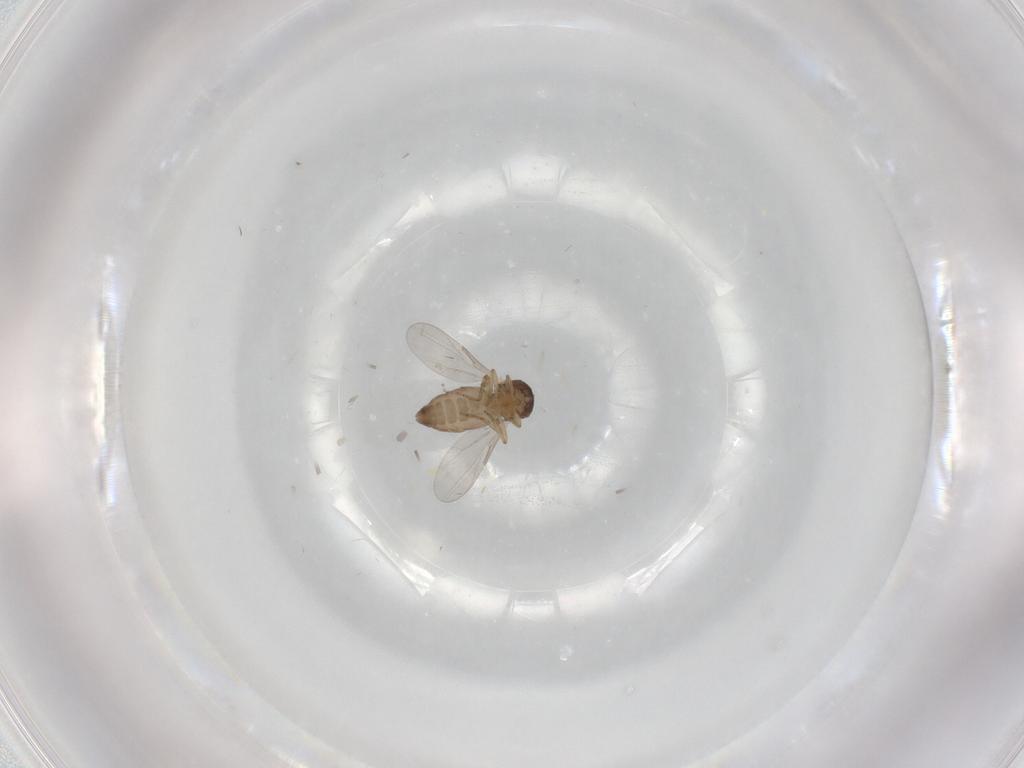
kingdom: Animalia
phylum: Arthropoda
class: Insecta
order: Diptera
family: Ceratopogonidae
